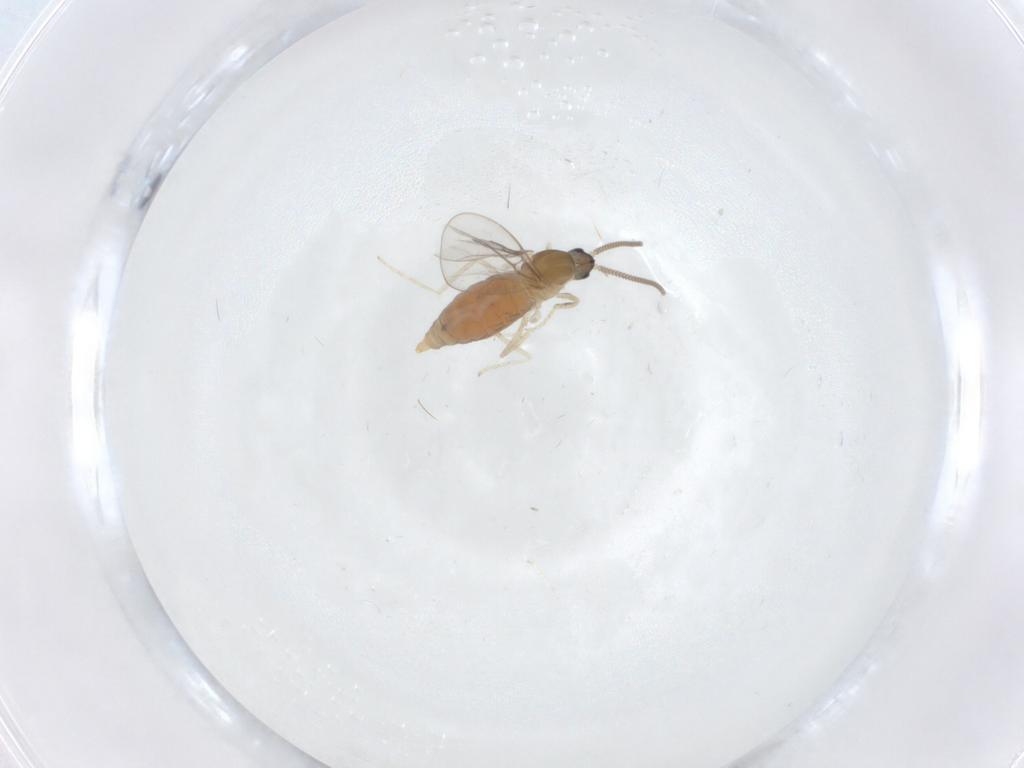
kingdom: Animalia
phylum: Arthropoda
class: Insecta
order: Diptera
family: Cecidomyiidae
